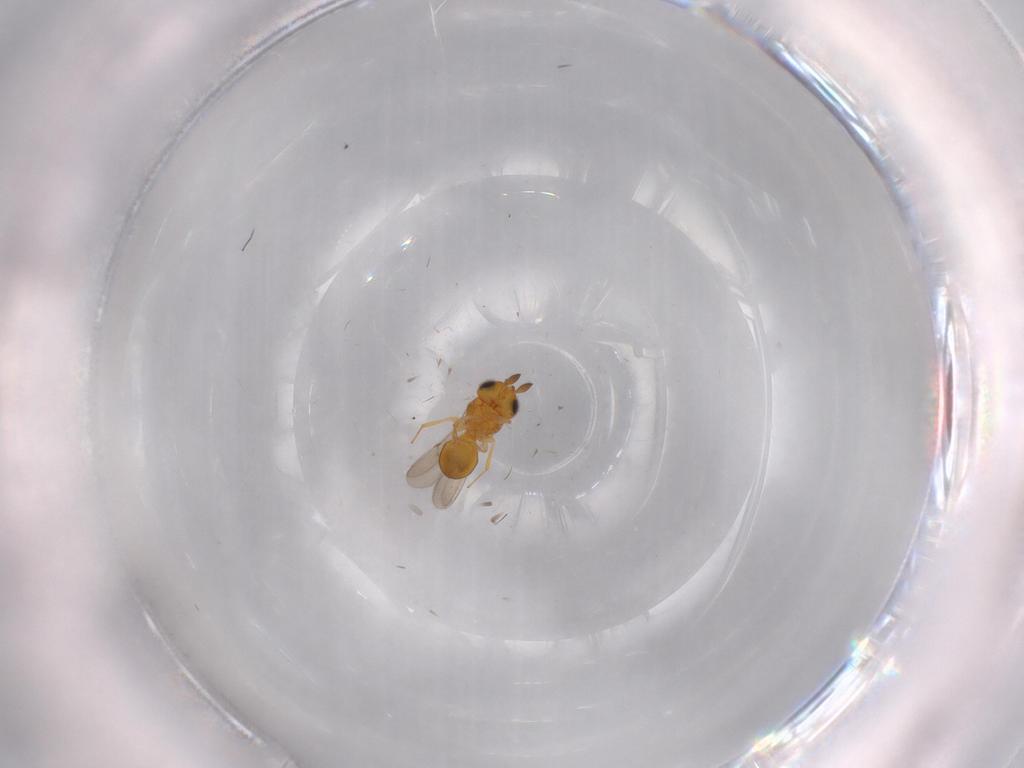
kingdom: Animalia
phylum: Arthropoda
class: Insecta
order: Hymenoptera
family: Scelionidae
